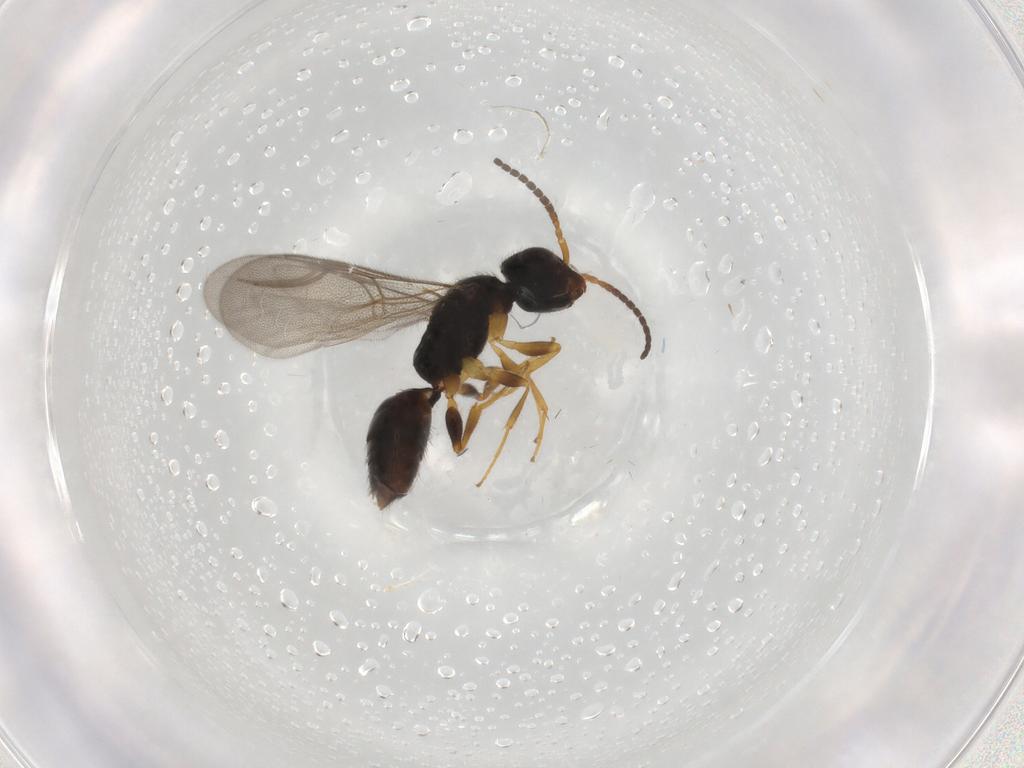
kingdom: Animalia
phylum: Arthropoda
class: Insecta
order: Hymenoptera
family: Bethylidae
